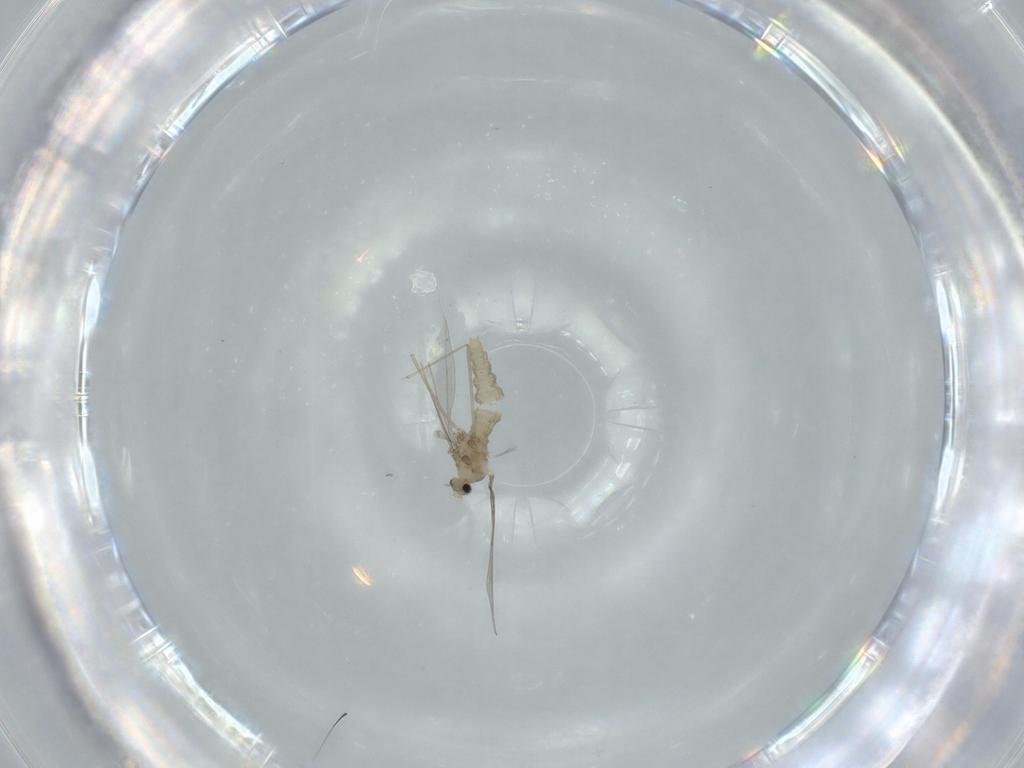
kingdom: Animalia
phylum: Arthropoda
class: Insecta
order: Diptera
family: Cecidomyiidae
